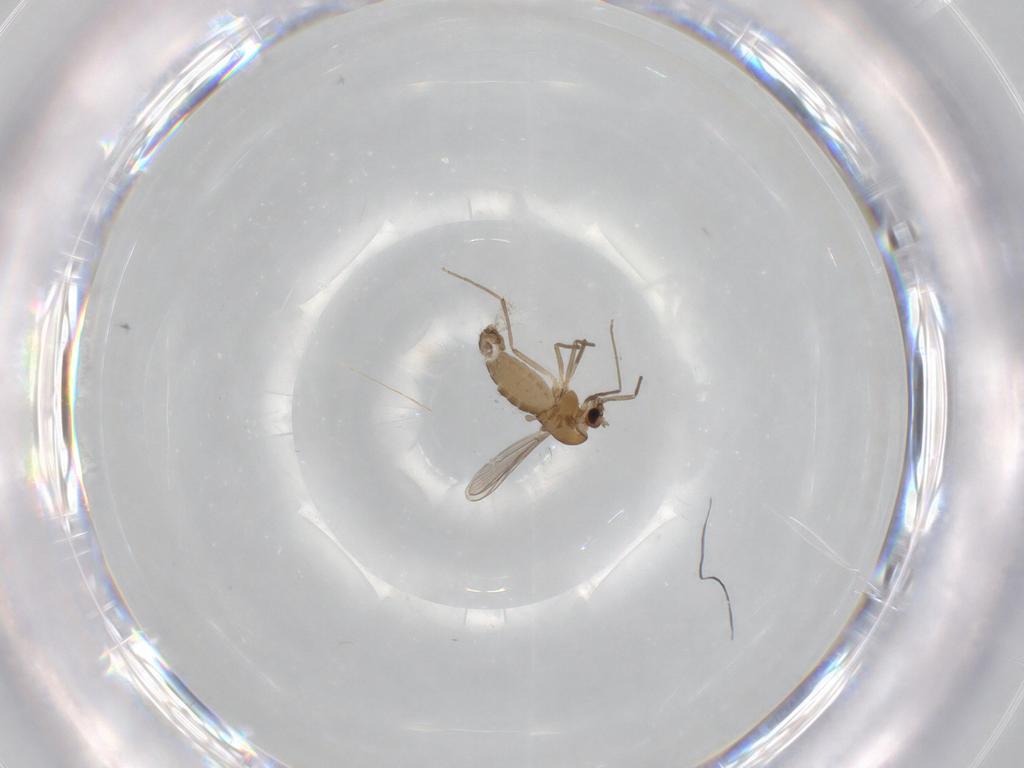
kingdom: Animalia
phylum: Arthropoda
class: Insecta
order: Diptera
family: Chironomidae
